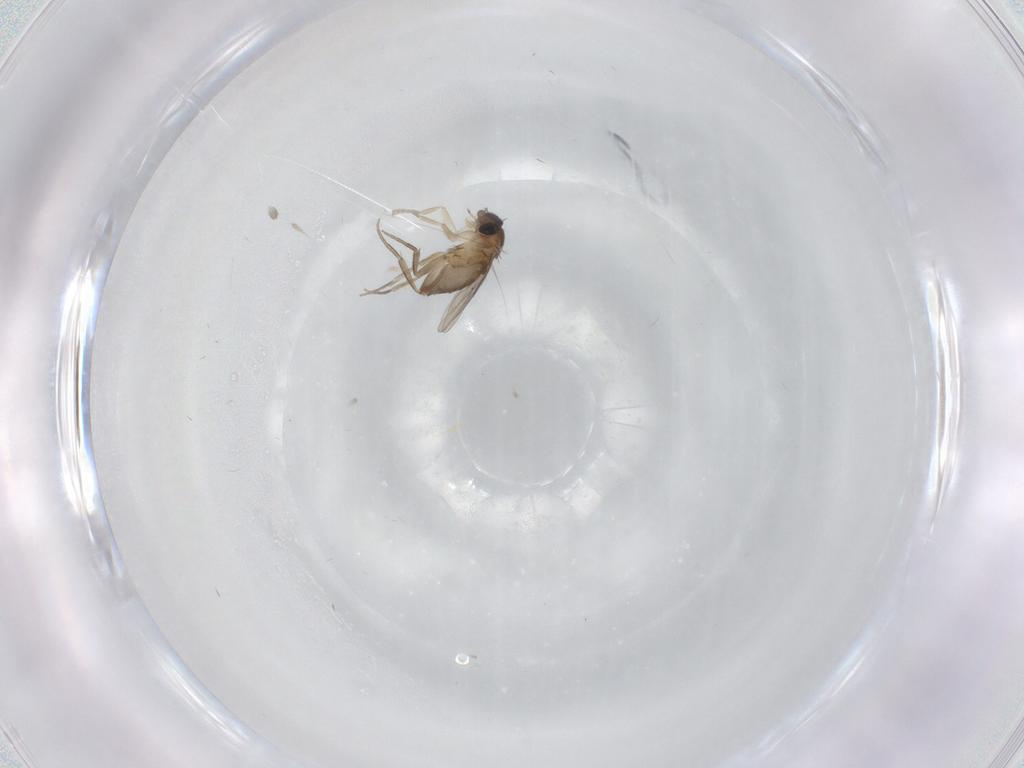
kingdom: Animalia
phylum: Arthropoda
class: Insecta
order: Diptera
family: Phoridae
